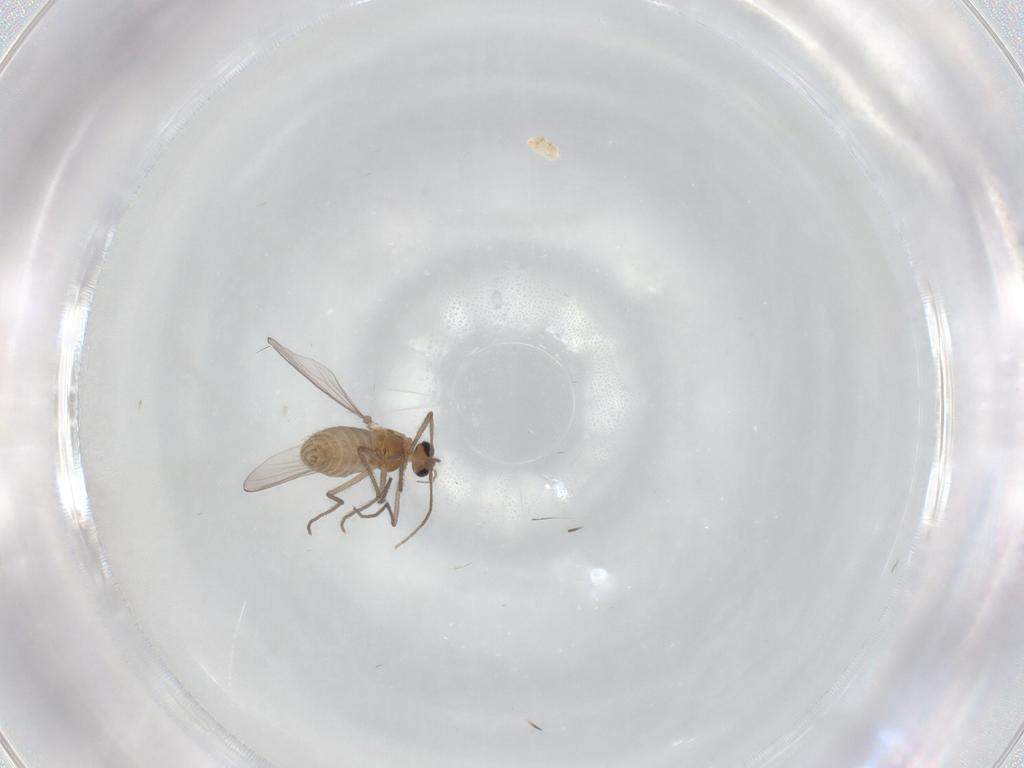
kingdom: Animalia
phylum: Arthropoda
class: Insecta
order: Diptera
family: Chironomidae
